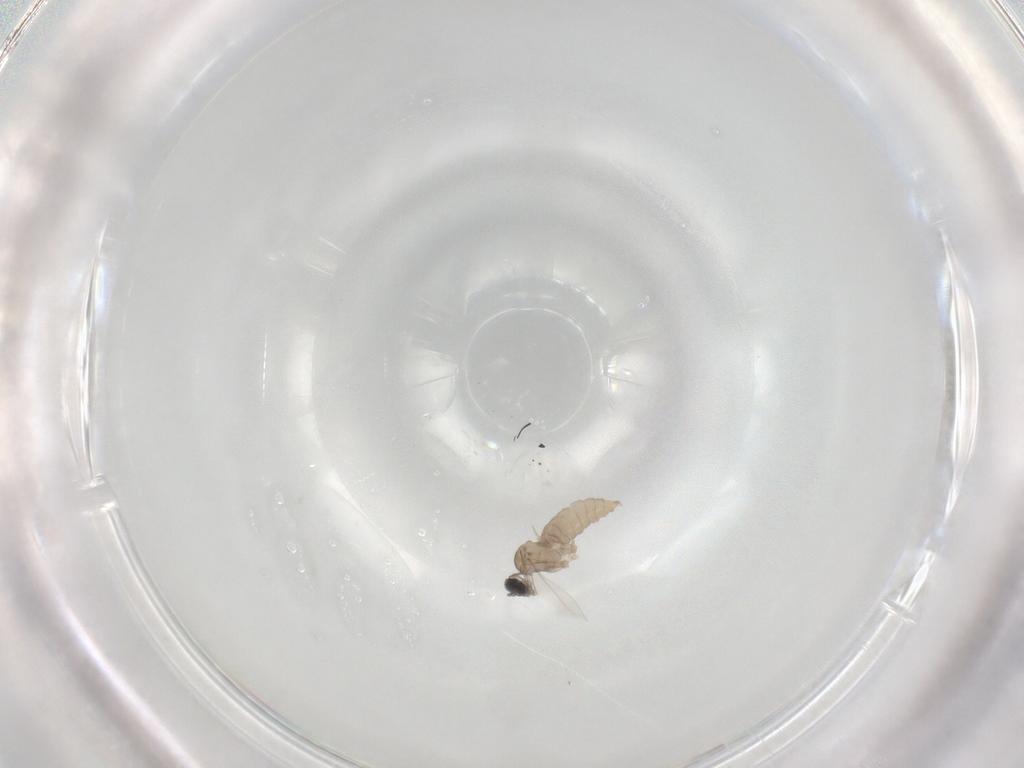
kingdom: Animalia
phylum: Arthropoda
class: Insecta
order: Diptera
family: Cecidomyiidae
